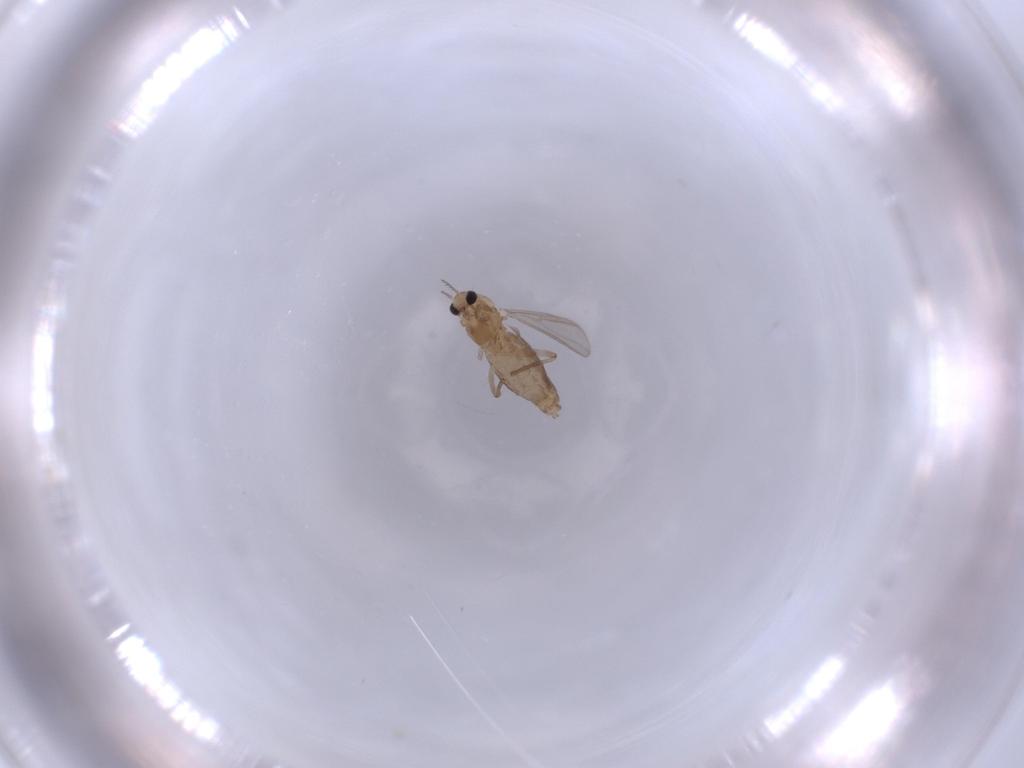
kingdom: Animalia
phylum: Arthropoda
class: Insecta
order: Diptera
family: Chironomidae
